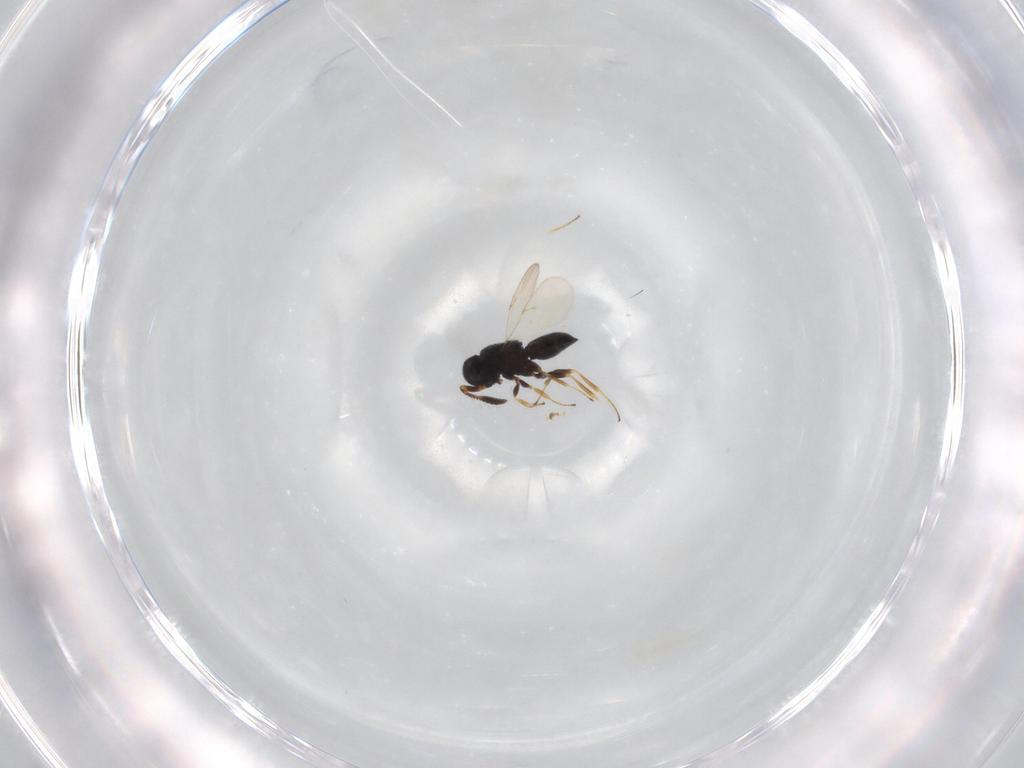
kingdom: Animalia
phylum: Arthropoda
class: Insecta
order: Hymenoptera
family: Scelionidae
